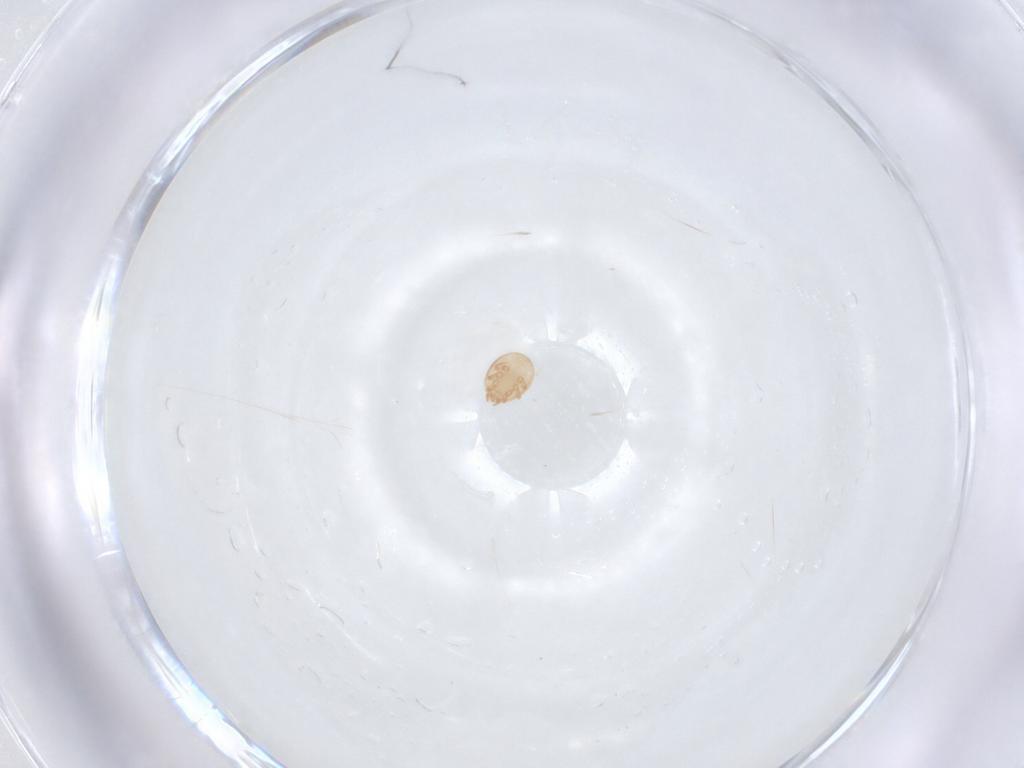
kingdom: Animalia
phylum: Arthropoda
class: Arachnida
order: Mesostigmata
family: Trematuridae
